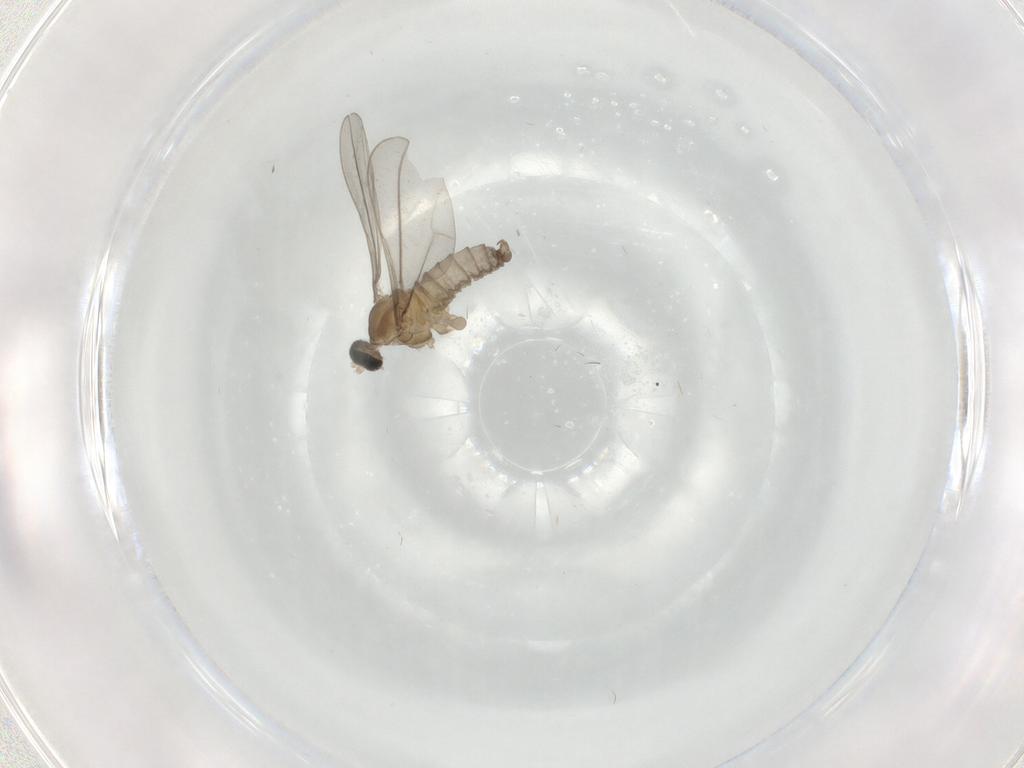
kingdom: Animalia
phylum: Arthropoda
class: Insecta
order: Diptera
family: Cecidomyiidae
